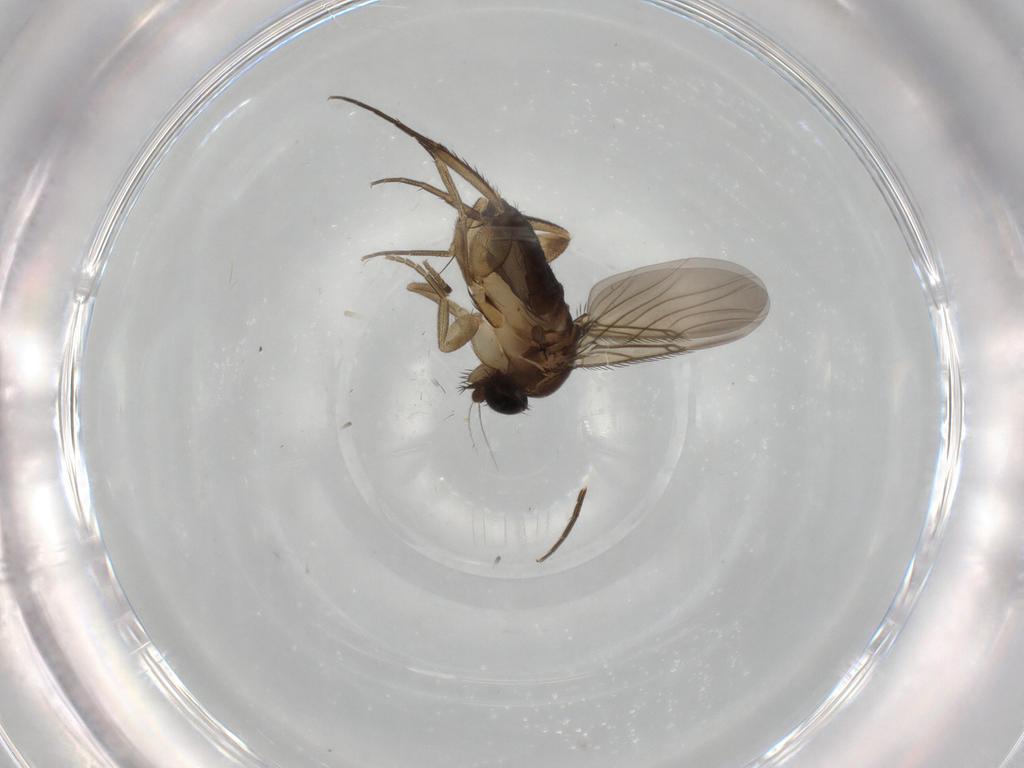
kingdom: Animalia
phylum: Arthropoda
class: Insecta
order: Diptera
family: Phoridae
